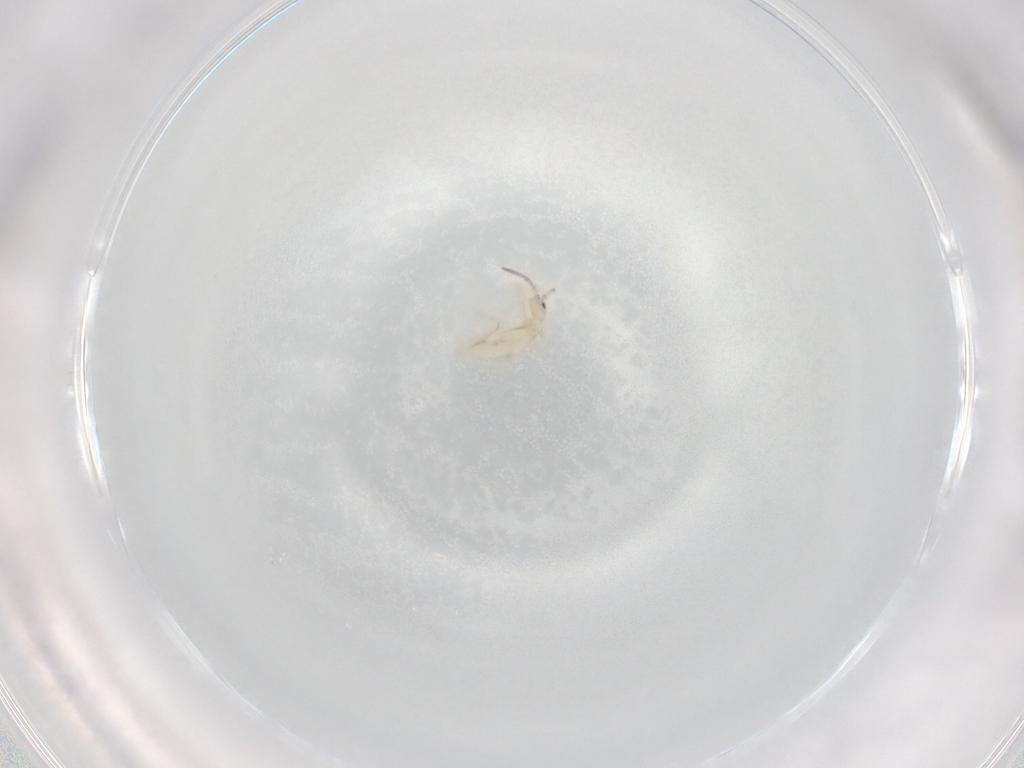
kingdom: Animalia
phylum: Arthropoda
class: Collembola
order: Entomobryomorpha
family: Entomobryidae
